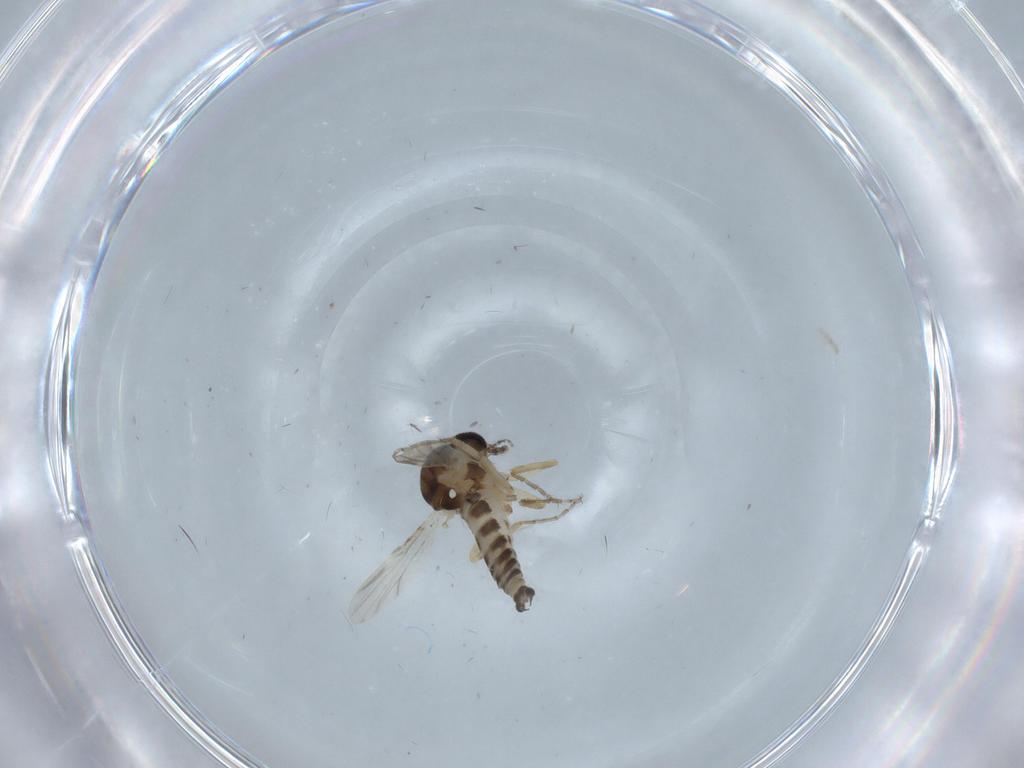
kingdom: Animalia
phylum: Arthropoda
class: Insecta
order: Diptera
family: Ceratopogonidae
